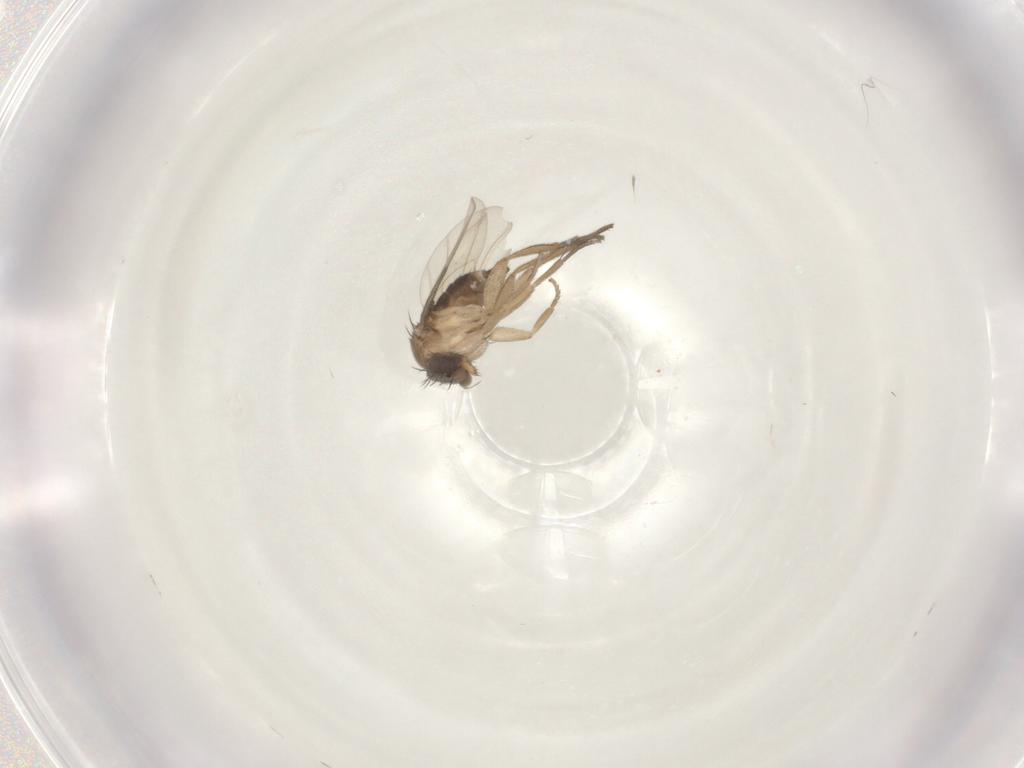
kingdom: Animalia
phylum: Arthropoda
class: Insecta
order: Diptera
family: Phoridae
